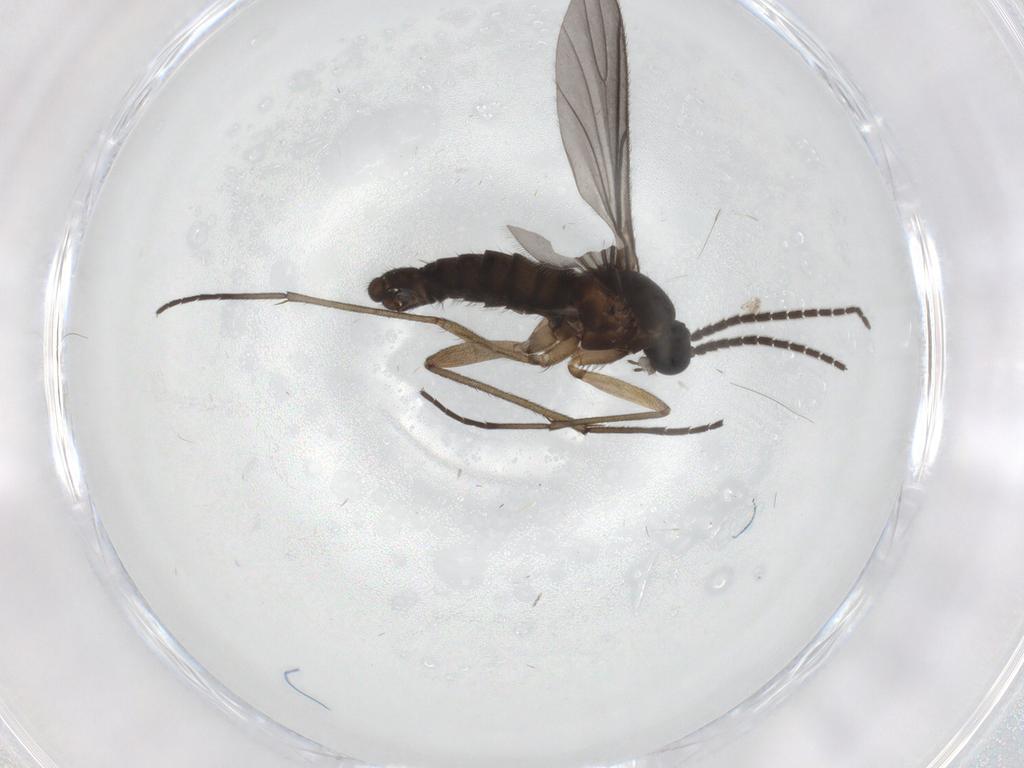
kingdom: Animalia
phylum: Arthropoda
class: Insecta
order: Diptera
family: Sciaridae
